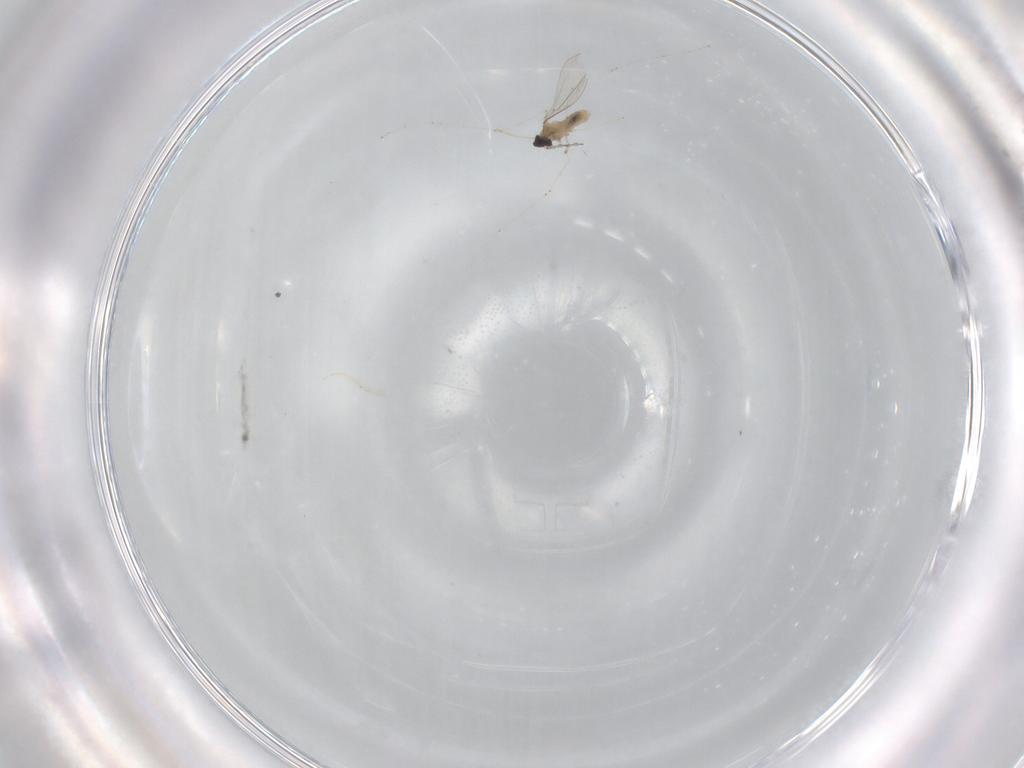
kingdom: Animalia
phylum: Arthropoda
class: Insecta
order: Diptera
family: Cecidomyiidae
